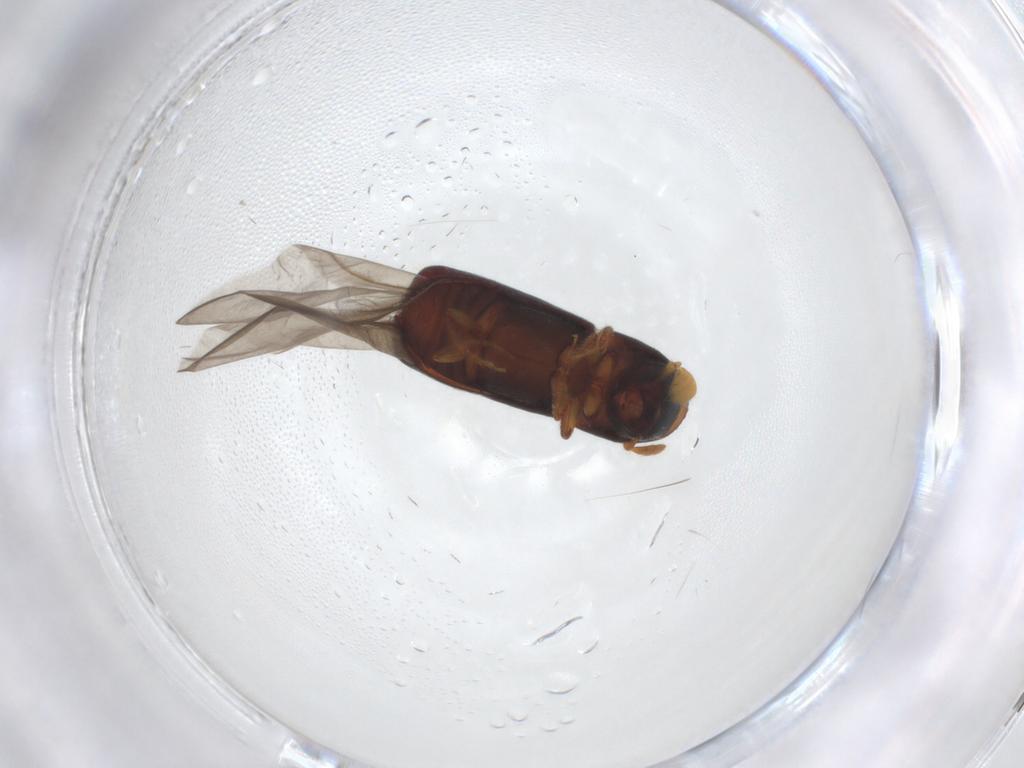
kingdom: Animalia
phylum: Arthropoda
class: Insecta
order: Coleoptera
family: Curculionidae
